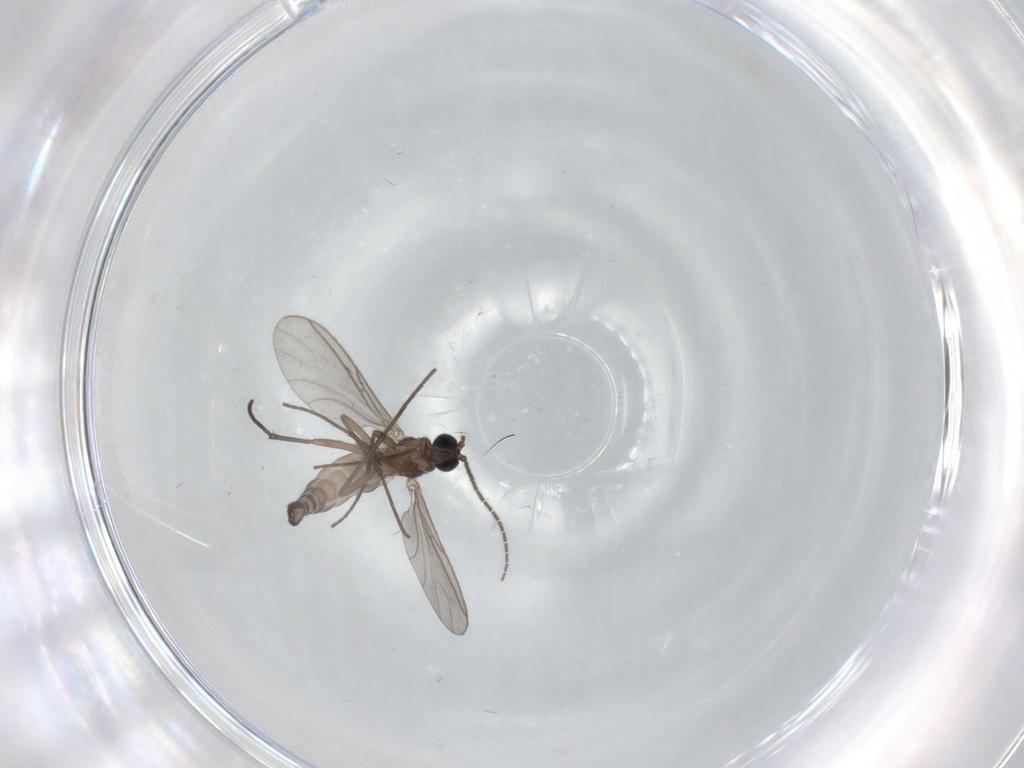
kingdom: Animalia
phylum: Arthropoda
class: Insecta
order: Diptera
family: Sciaridae
